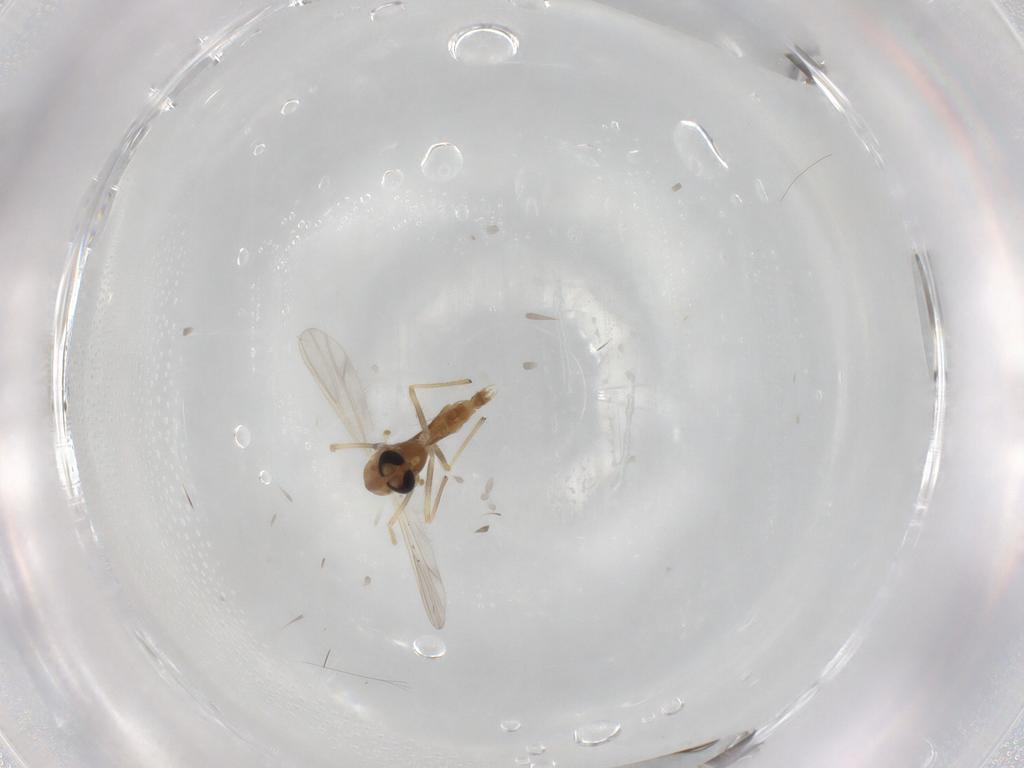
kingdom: Animalia
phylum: Arthropoda
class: Insecta
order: Diptera
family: Chironomidae
